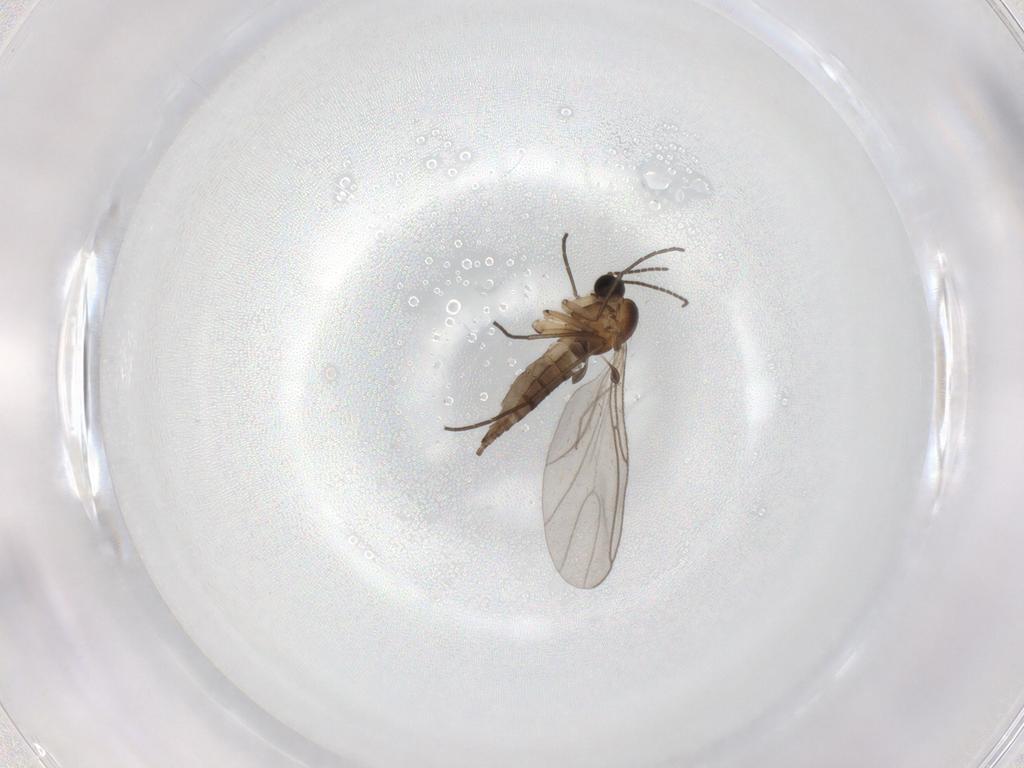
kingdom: Animalia
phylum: Arthropoda
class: Insecta
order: Diptera
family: Sciaridae
